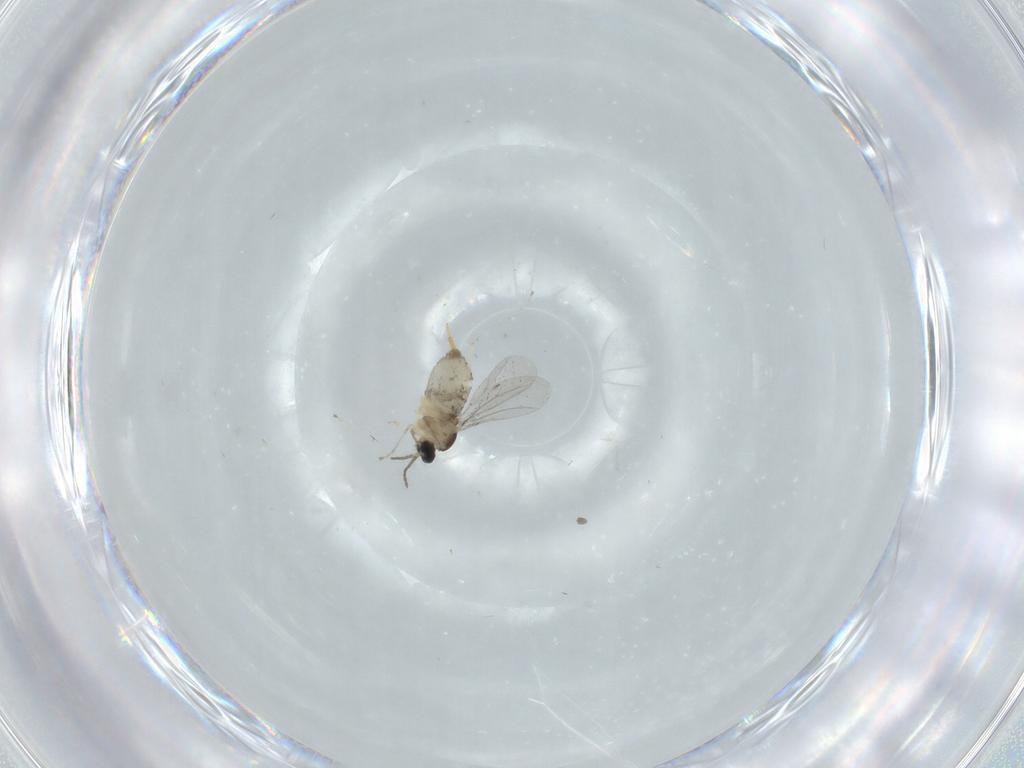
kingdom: Animalia
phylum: Arthropoda
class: Insecta
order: Diptera
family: Cecidomyiidae
